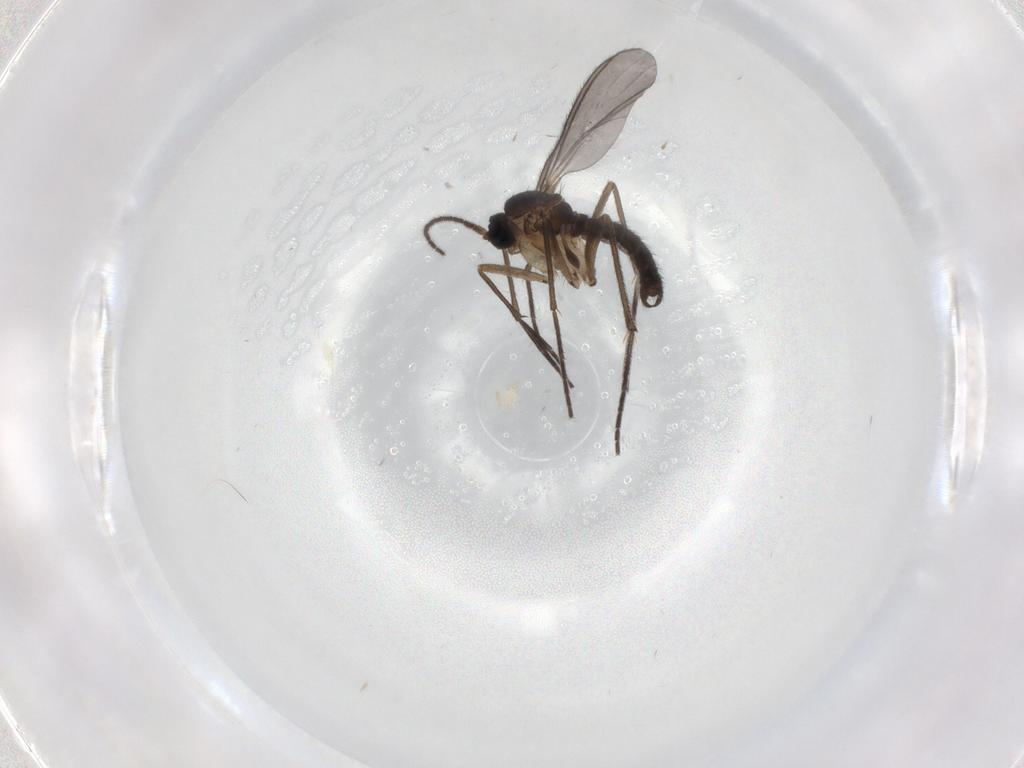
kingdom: Animalia
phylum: Arthropoda
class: Insecta
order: Diptera
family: Sciaridae
